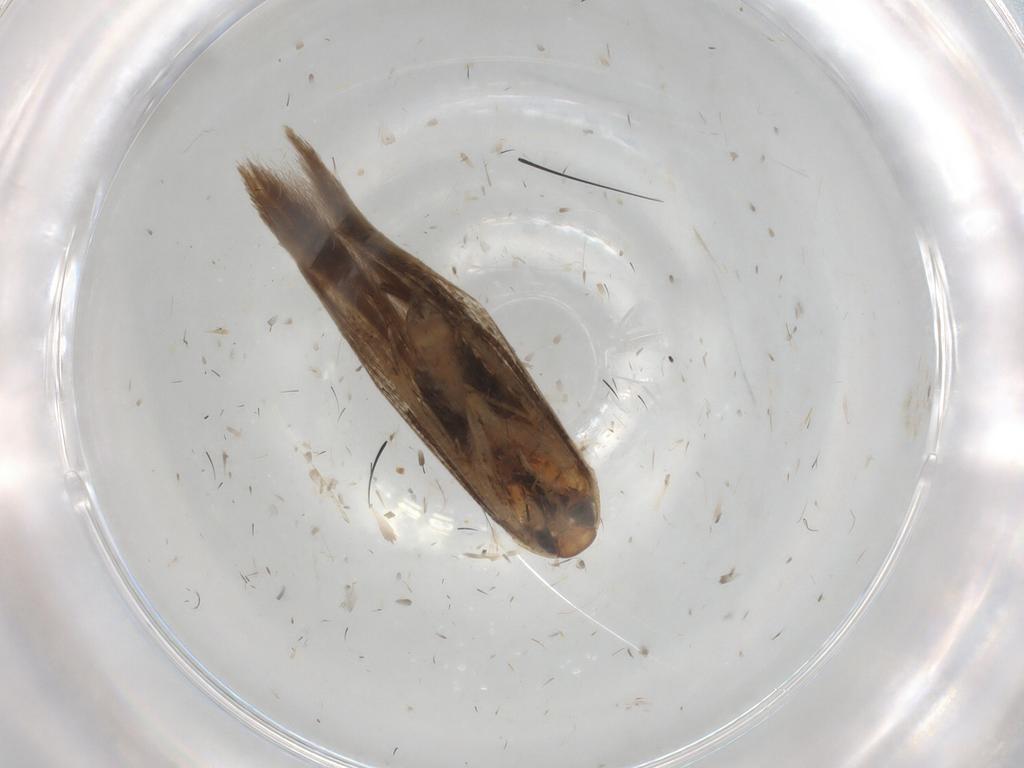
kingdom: Animalia
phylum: Arthropoda
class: Insecta
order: Lepidoptera
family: Cosmopterigidae
